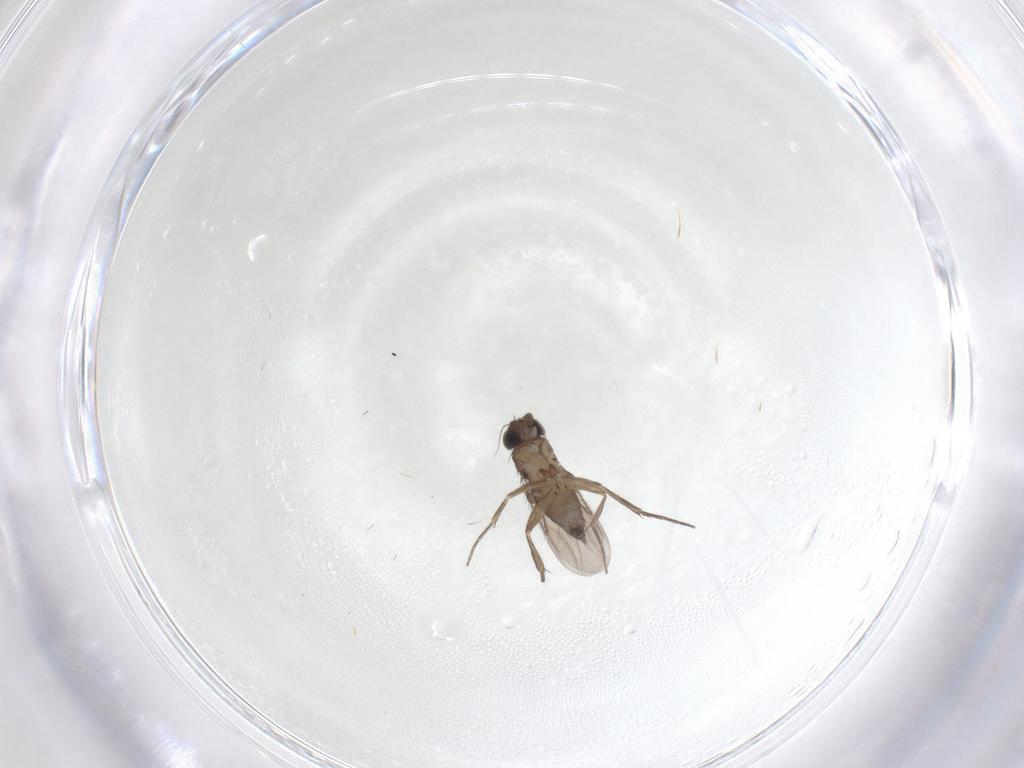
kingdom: Animalia
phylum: Arthropoda
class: Insecta
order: Diptera
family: Phoridae
